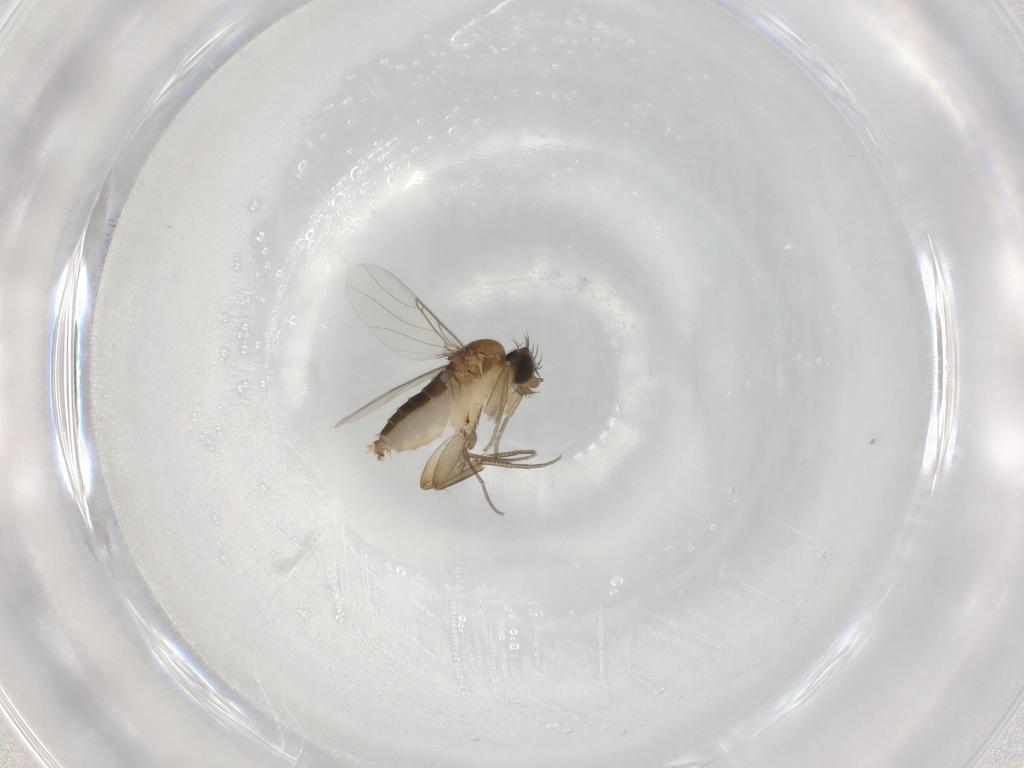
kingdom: Animalia
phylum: Arthropoda
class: Insecta
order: Diptera
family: Phoridae
